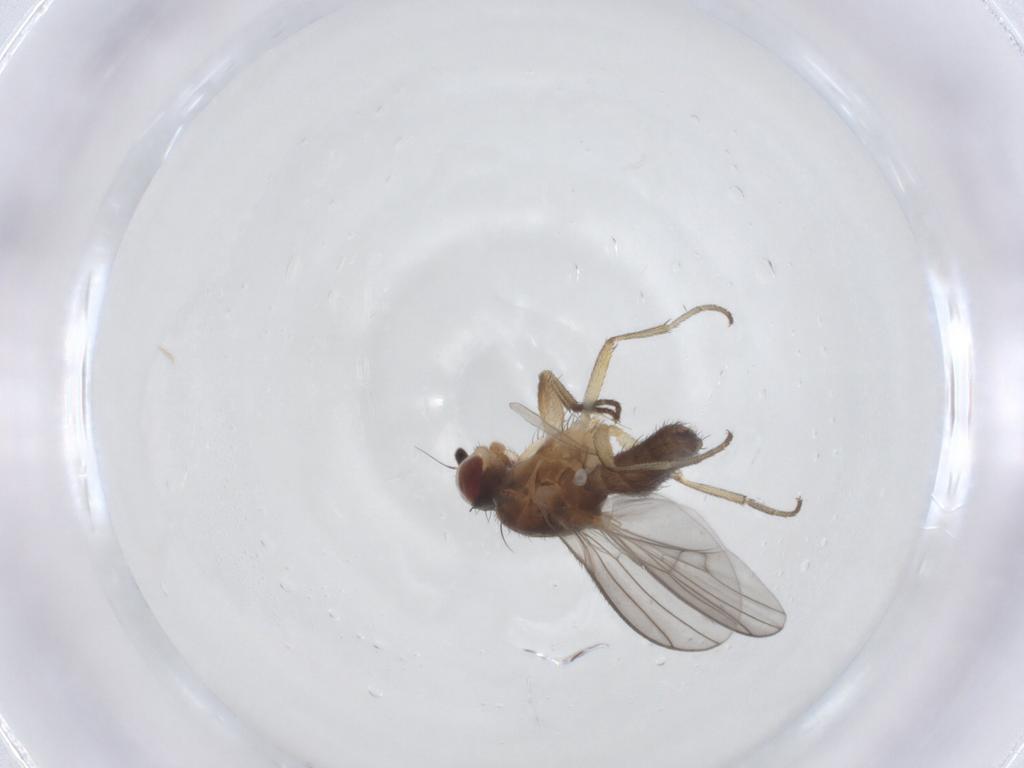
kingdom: Animalia
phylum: Arthropoda
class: Insecta
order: Diptera
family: Heleomyzidae
